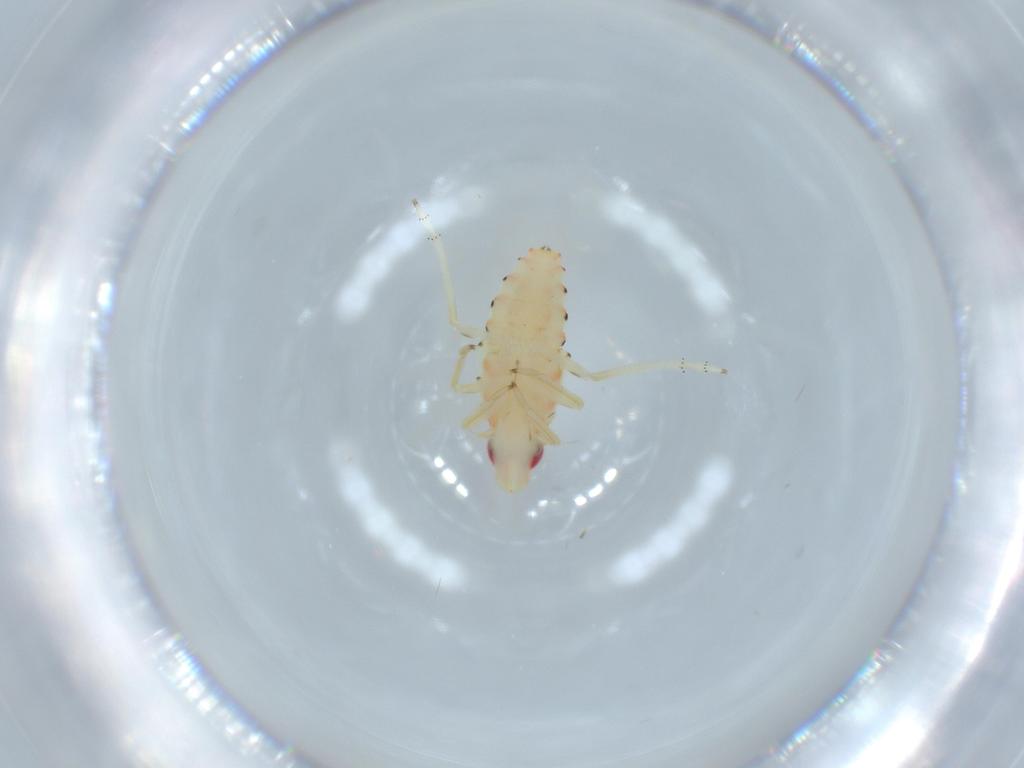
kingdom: Animalia
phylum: Arthropoda
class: Insecta
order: Hemiptera
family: Tropiduchidae
